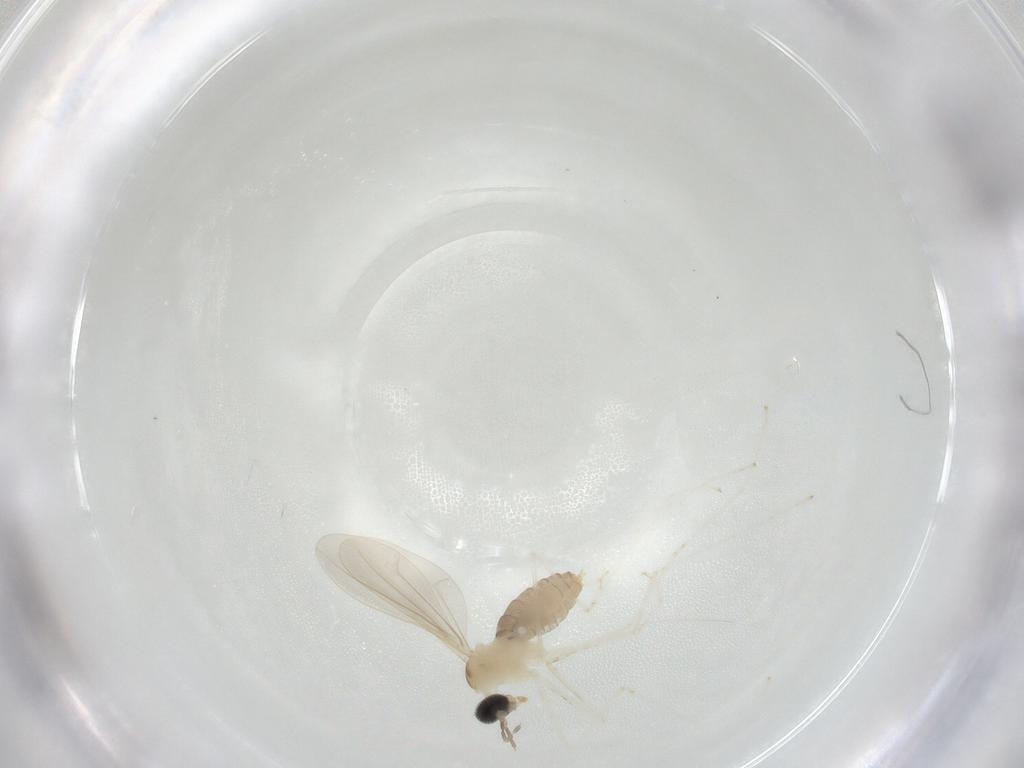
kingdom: Animalia
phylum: Arthropoda
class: Insecta
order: Diptera
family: Cecidomyiidae
